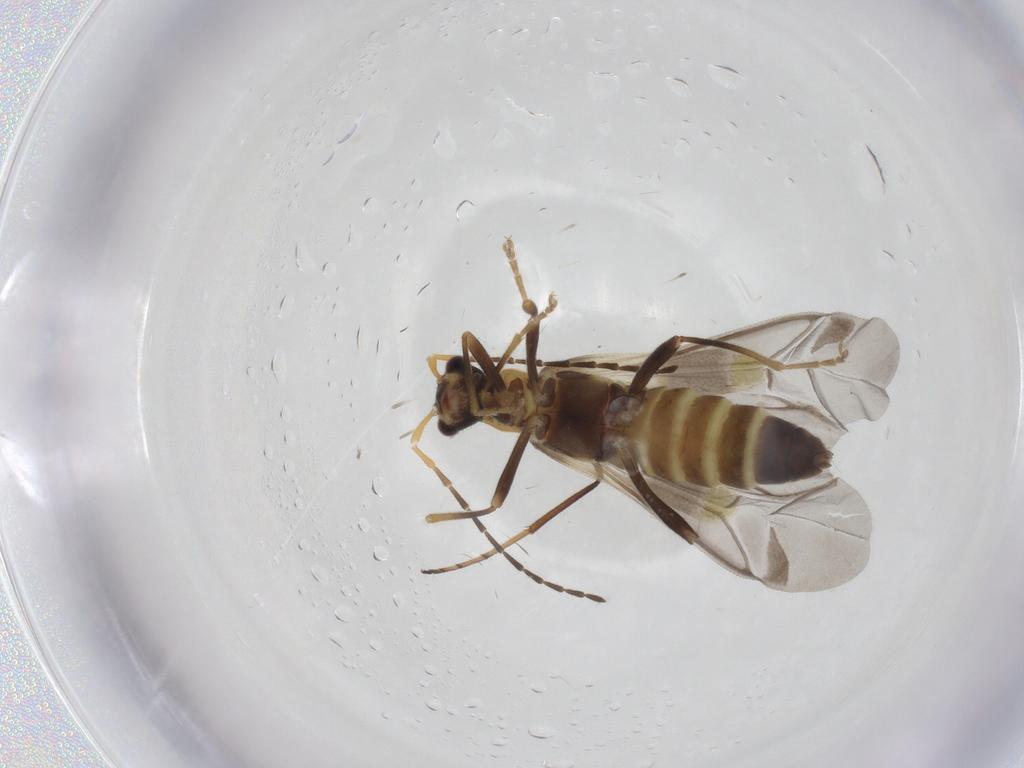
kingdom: Animalia
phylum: Arthropoda
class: Insecta
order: Coleoptera
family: Cantharidae
